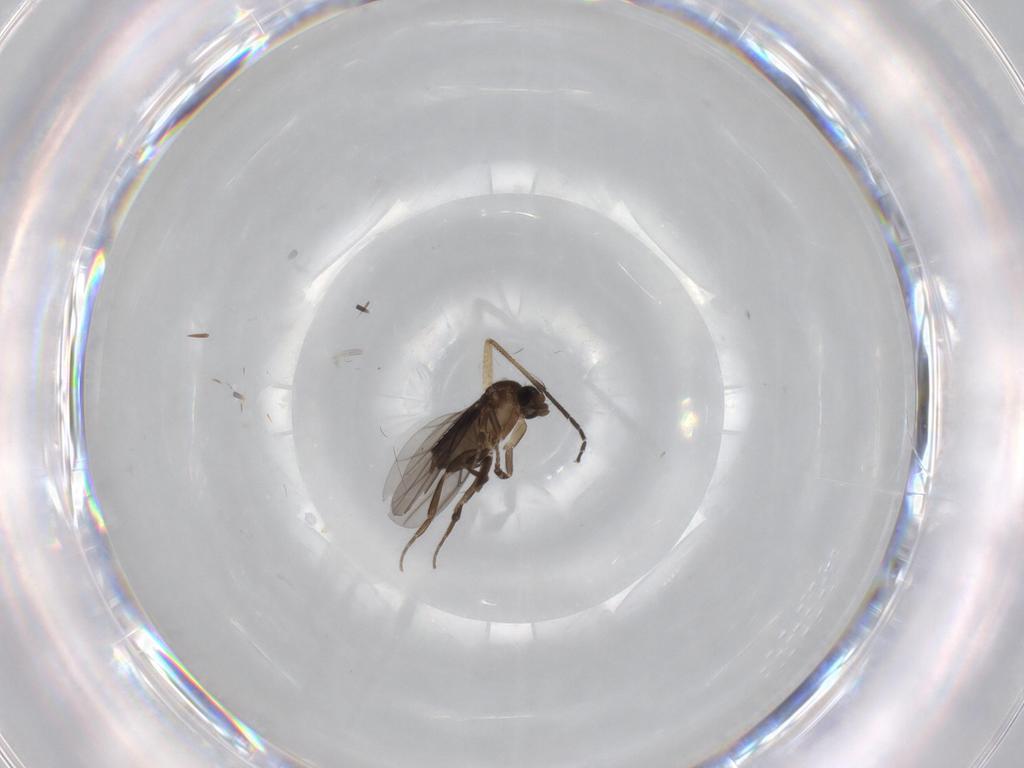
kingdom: Animalia
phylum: Arthropoda
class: Insecta
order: Diptera
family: Phoridae
